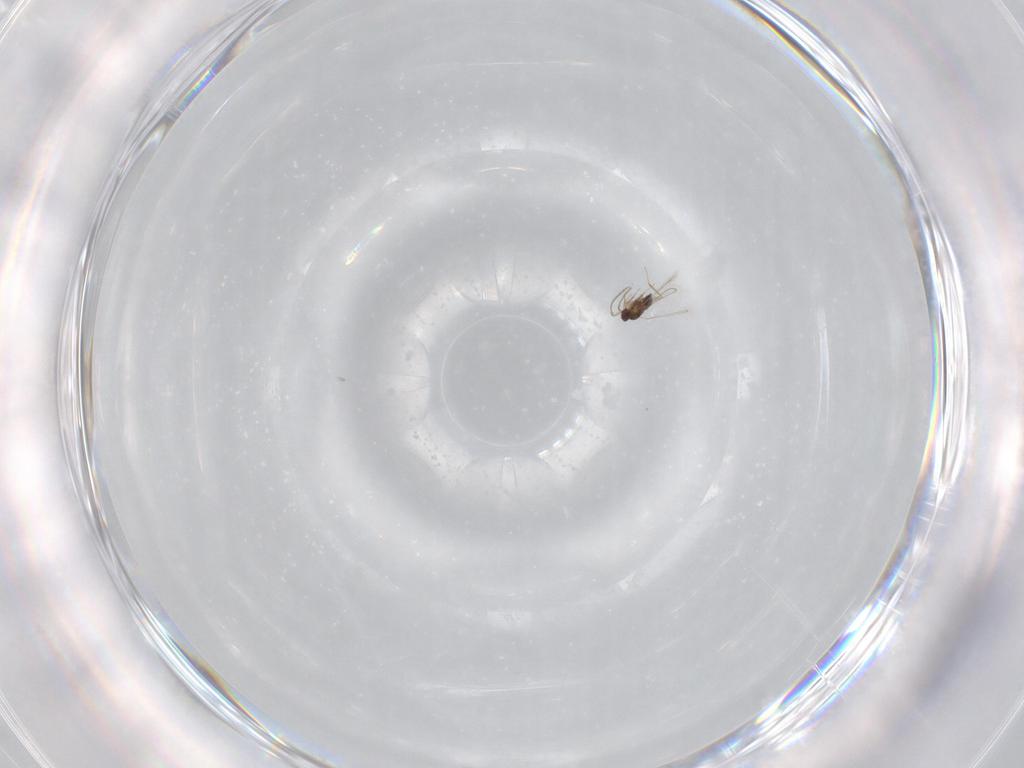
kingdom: Animalia
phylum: Arthropoda
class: Insecta
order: Hymenoptera
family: Mymaridae
